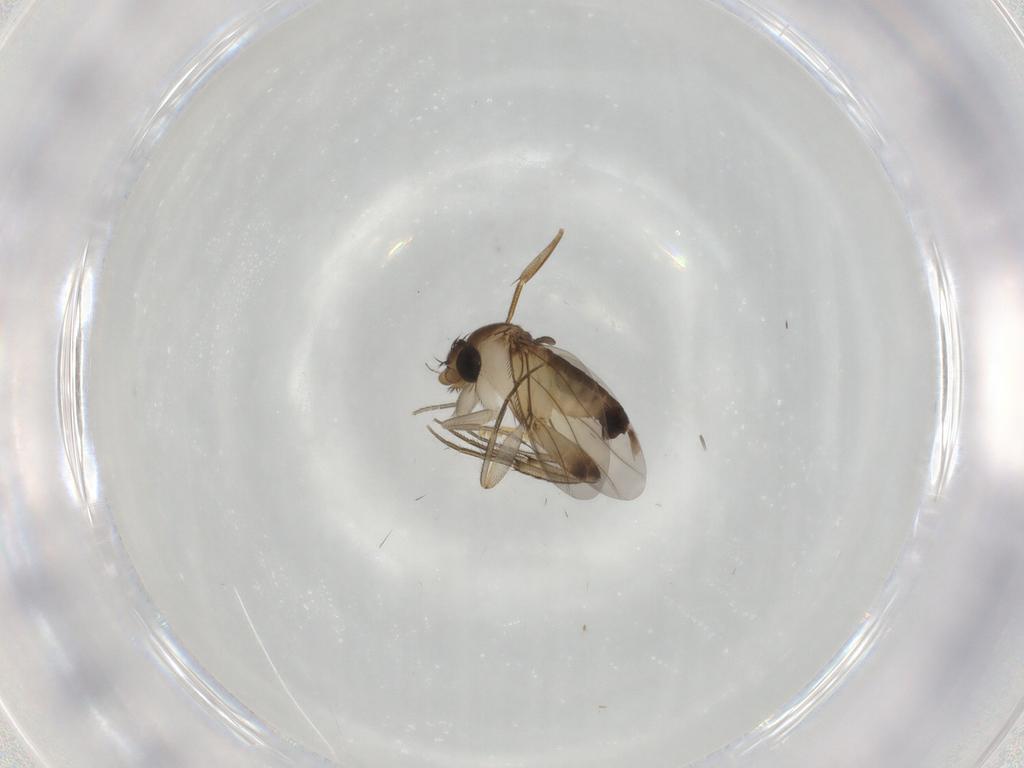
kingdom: Animalia
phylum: Arthropoda
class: Insecta
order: Diptera
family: Phoridae
